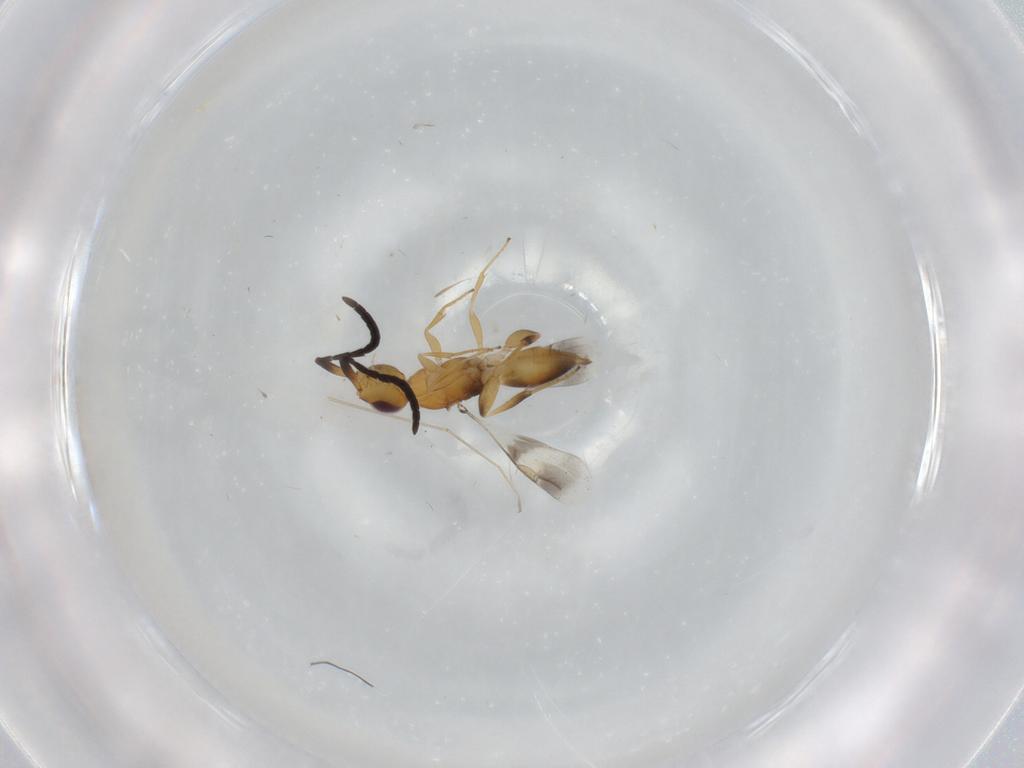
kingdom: Animalia
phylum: Arthropoda
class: Insecta
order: Hymenoptera
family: Megaspilidae
